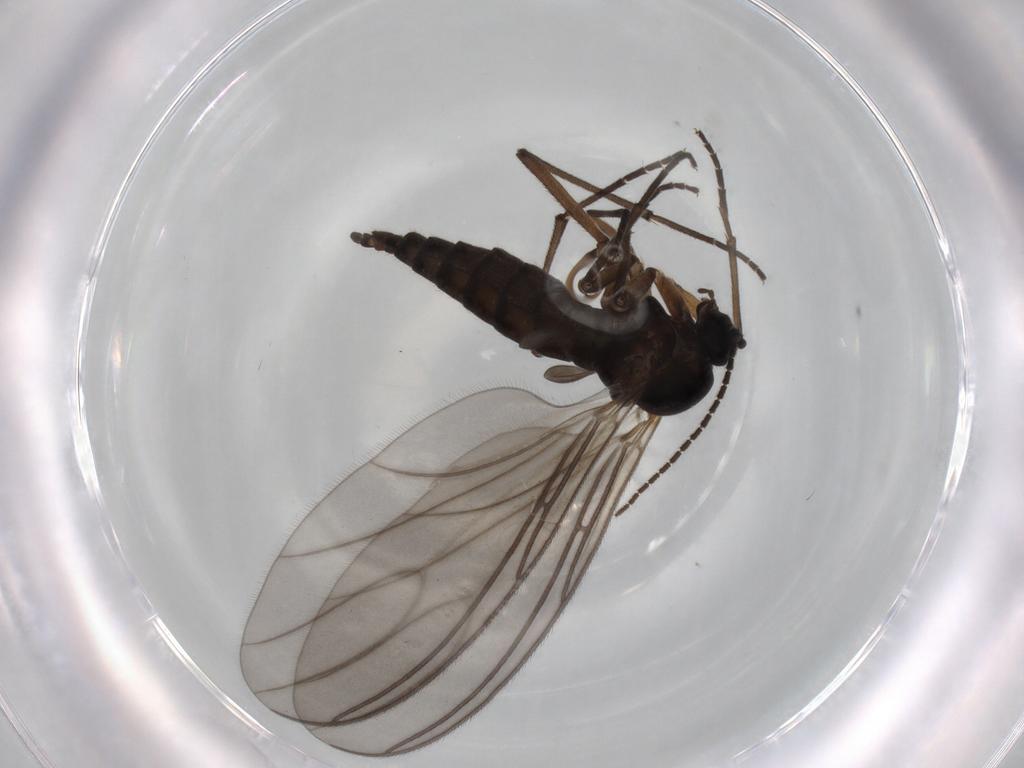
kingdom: Animalia
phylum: Arthropoda
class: Insecta
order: Diptera
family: Sciaridae
